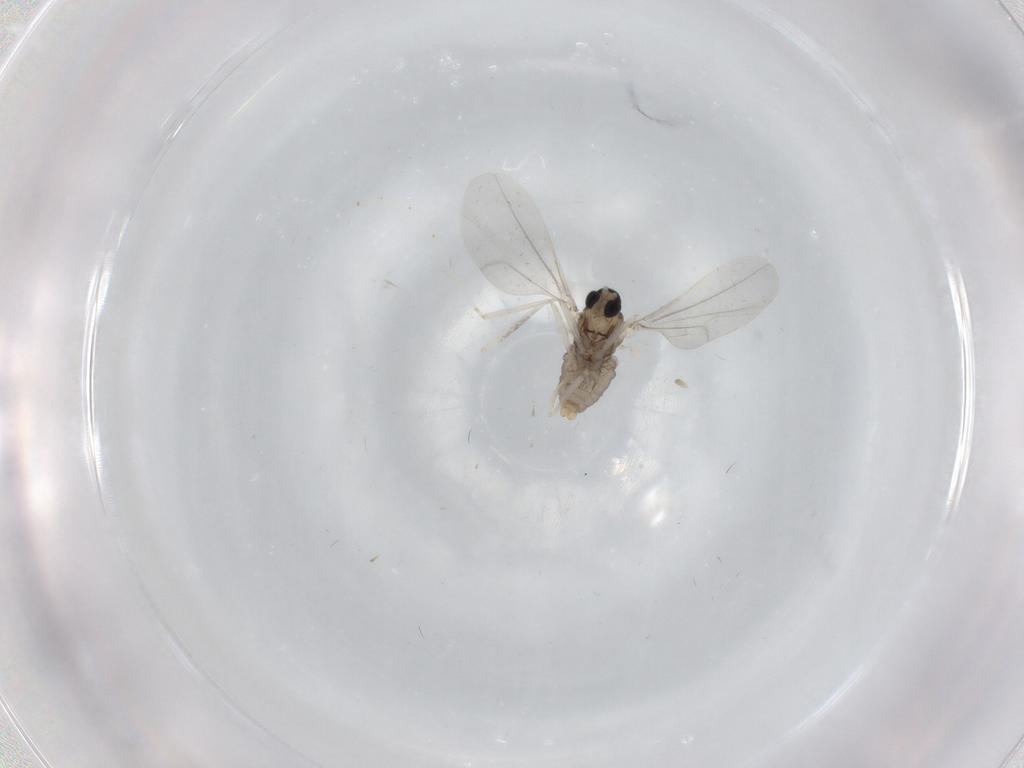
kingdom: Animalia
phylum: Arthropoda
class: Insecta
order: Diptera
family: Cecidomyiidae
